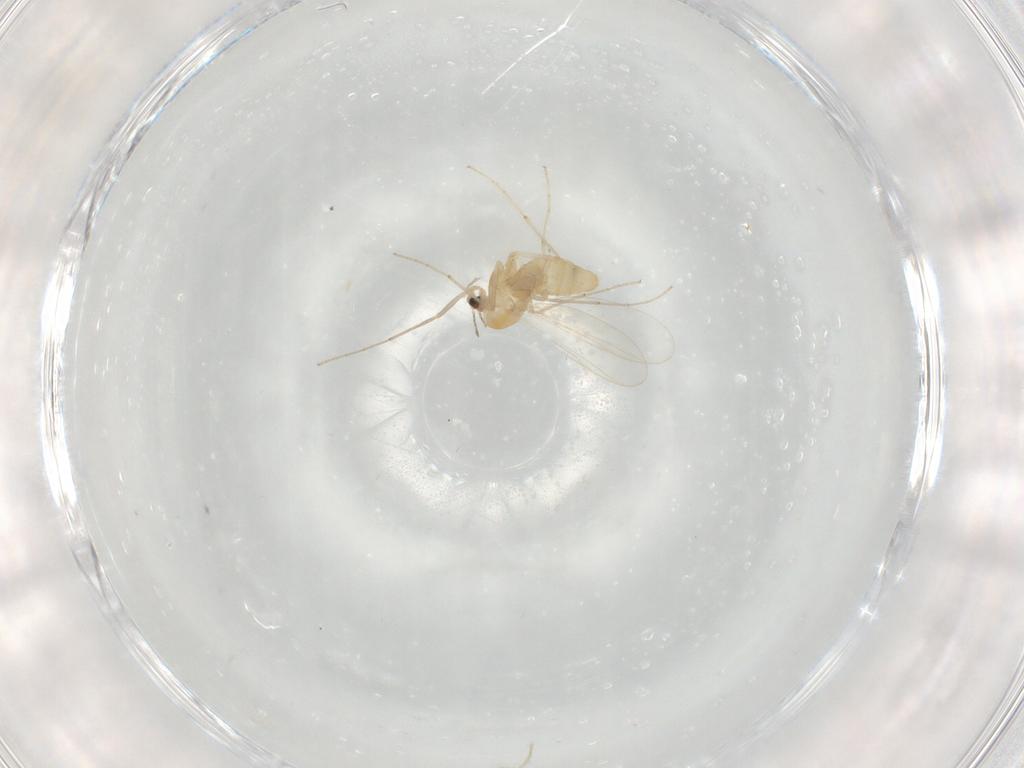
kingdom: Animalia
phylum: Arthropoda
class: Insecta
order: Diptera
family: Chironomidae
